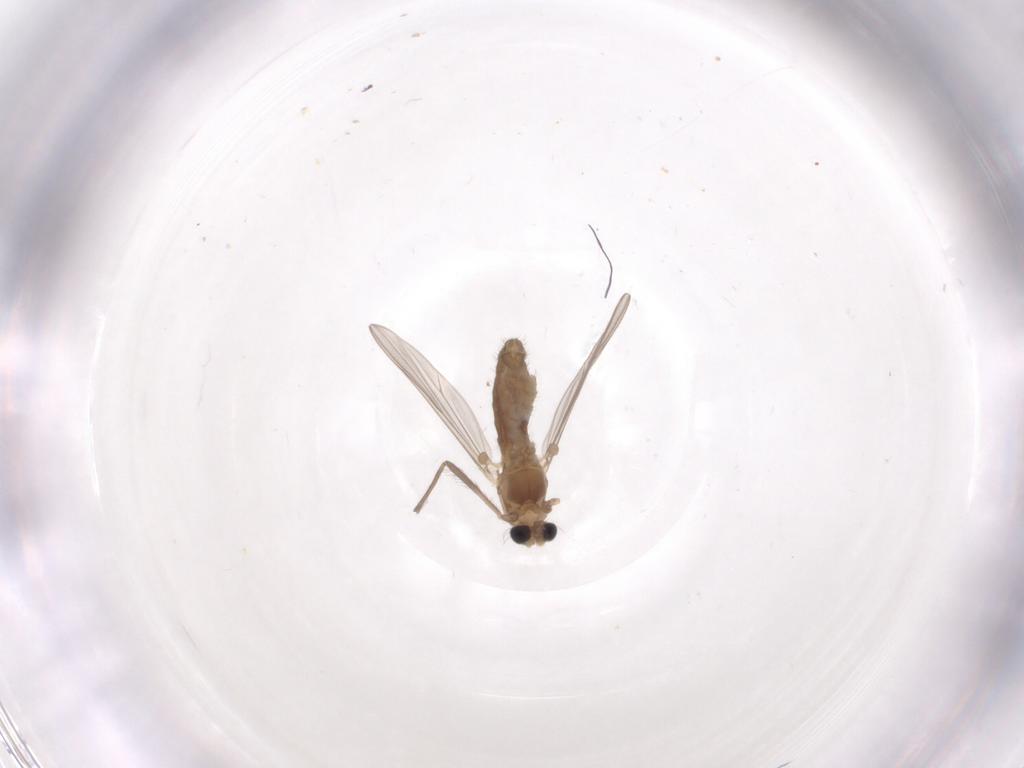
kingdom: Animalia
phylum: Arthropoda
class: Insecta
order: Diptera
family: Chironomidae
